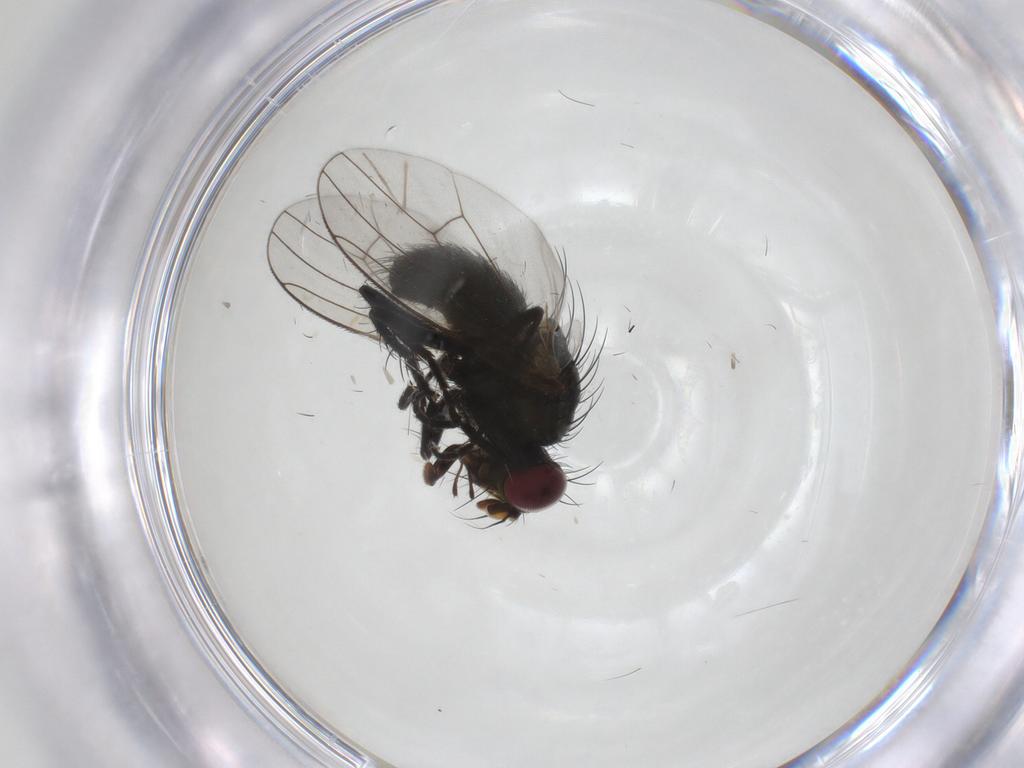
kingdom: Animalia
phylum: Arthropoda
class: Insecta
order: Diptera
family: Muscidae
